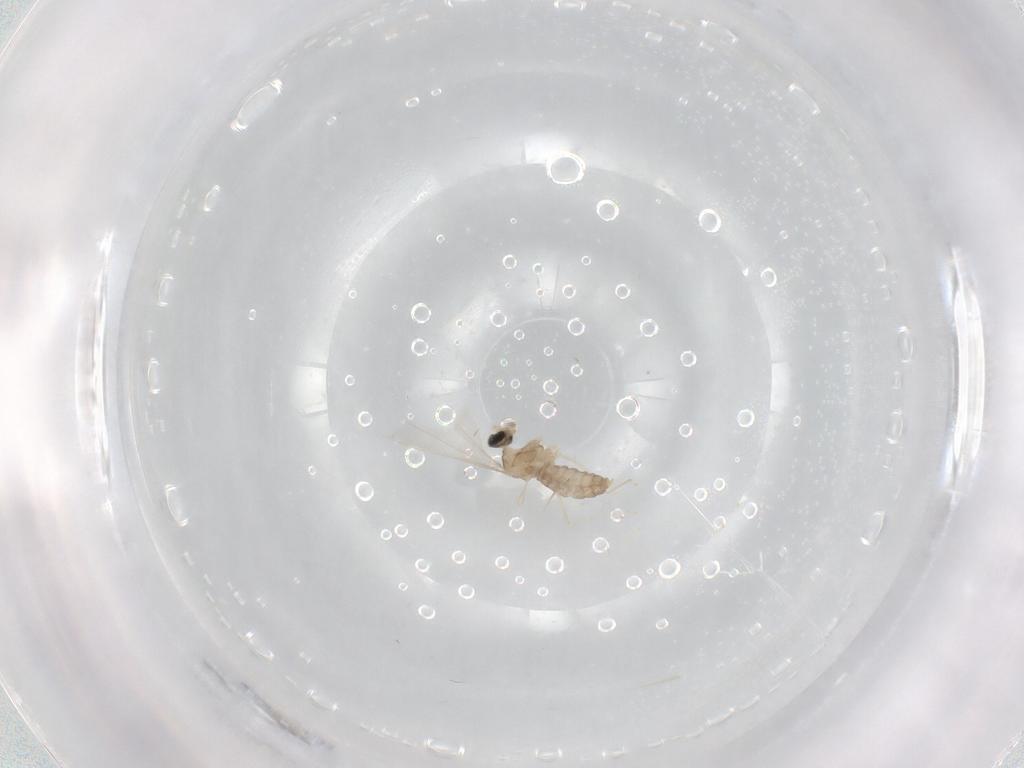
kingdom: Animalia
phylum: Arthropoda
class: Insecta
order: Diptera
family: Cecidomyiidae
